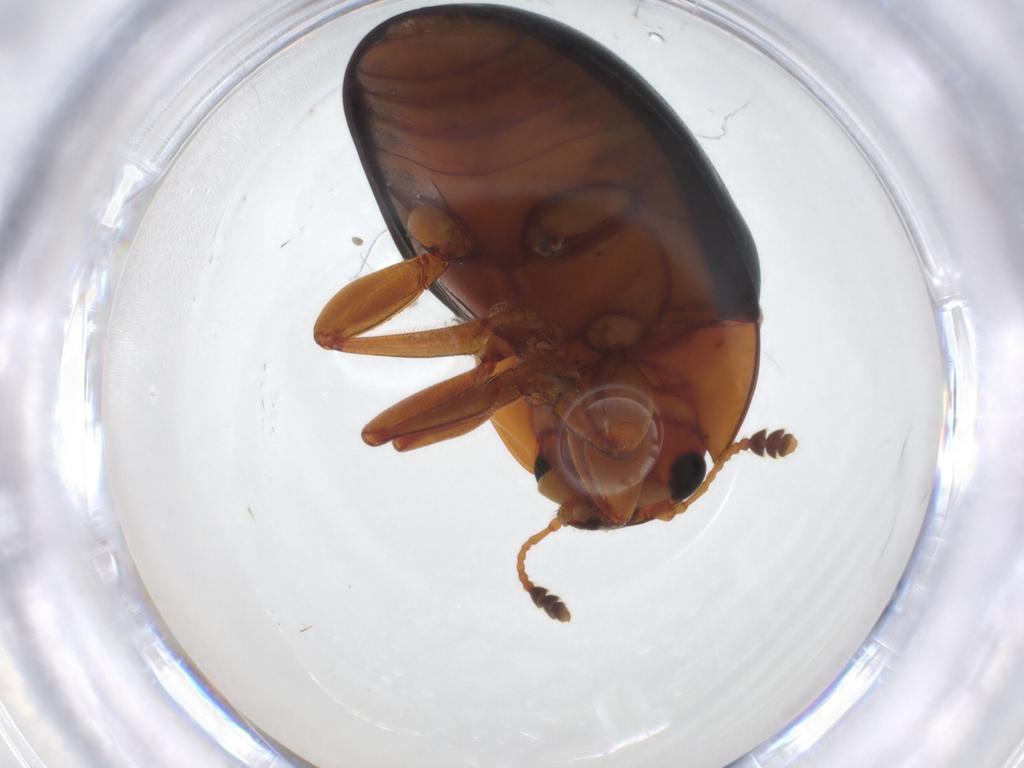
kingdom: Animalia
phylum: Arthropoda
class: Insecta
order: Coleoptera
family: Erotylidae
